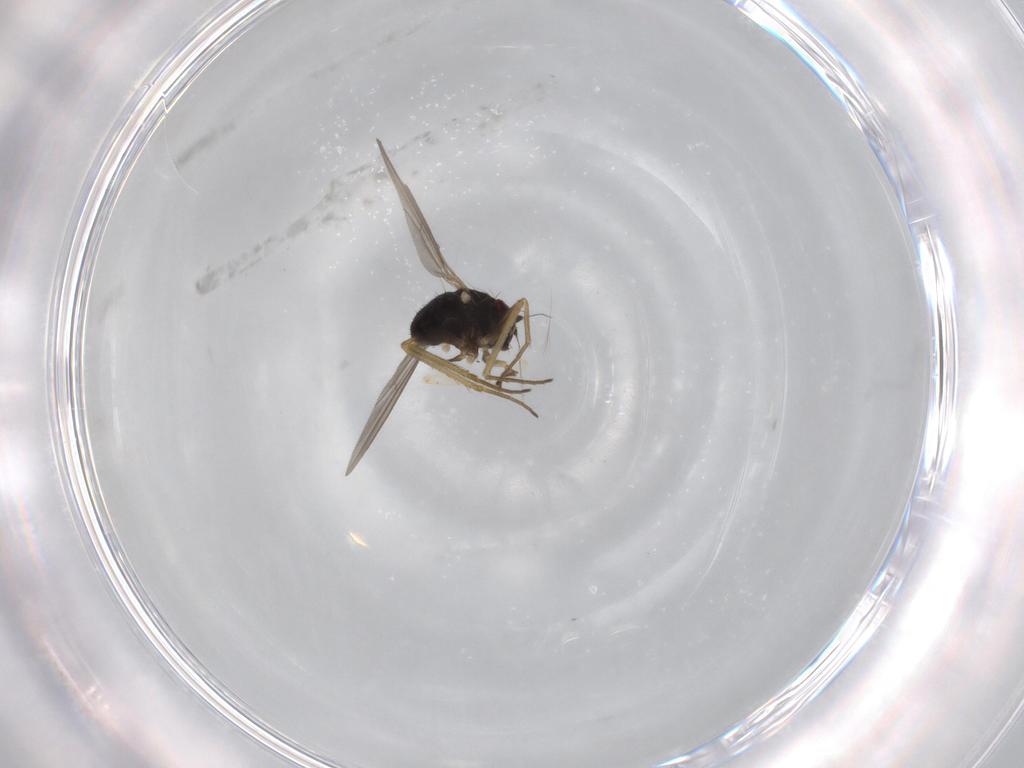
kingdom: Animalia
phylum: Arthropoda
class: Insecta
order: Diptera
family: Dolichopodidae
